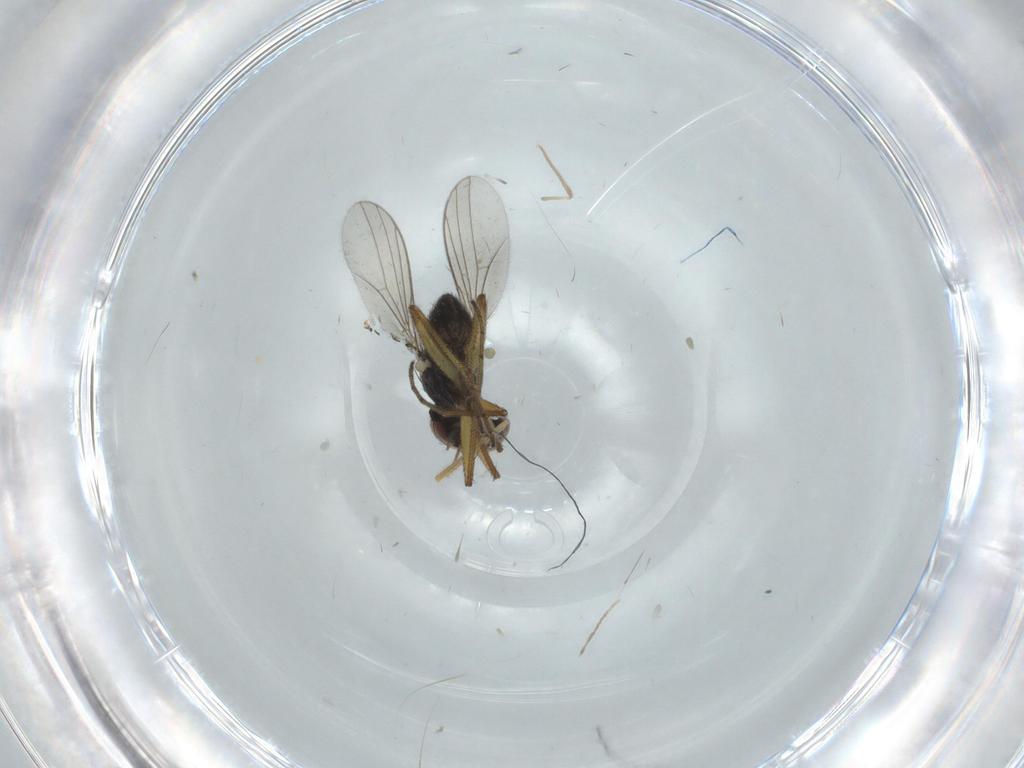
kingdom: Animalia
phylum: Arthropoda
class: Insecta
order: Diptera
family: Dolichopodidae
